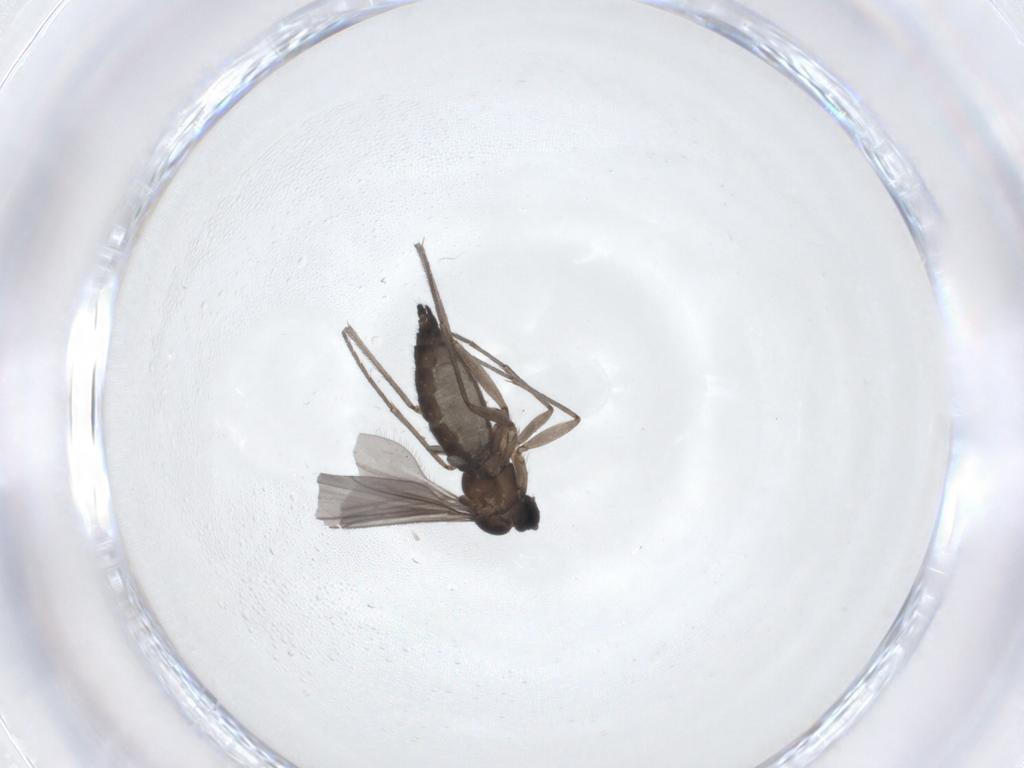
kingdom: Animalia
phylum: Arthropoda
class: Insecta
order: Diptera
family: Sciaridae
